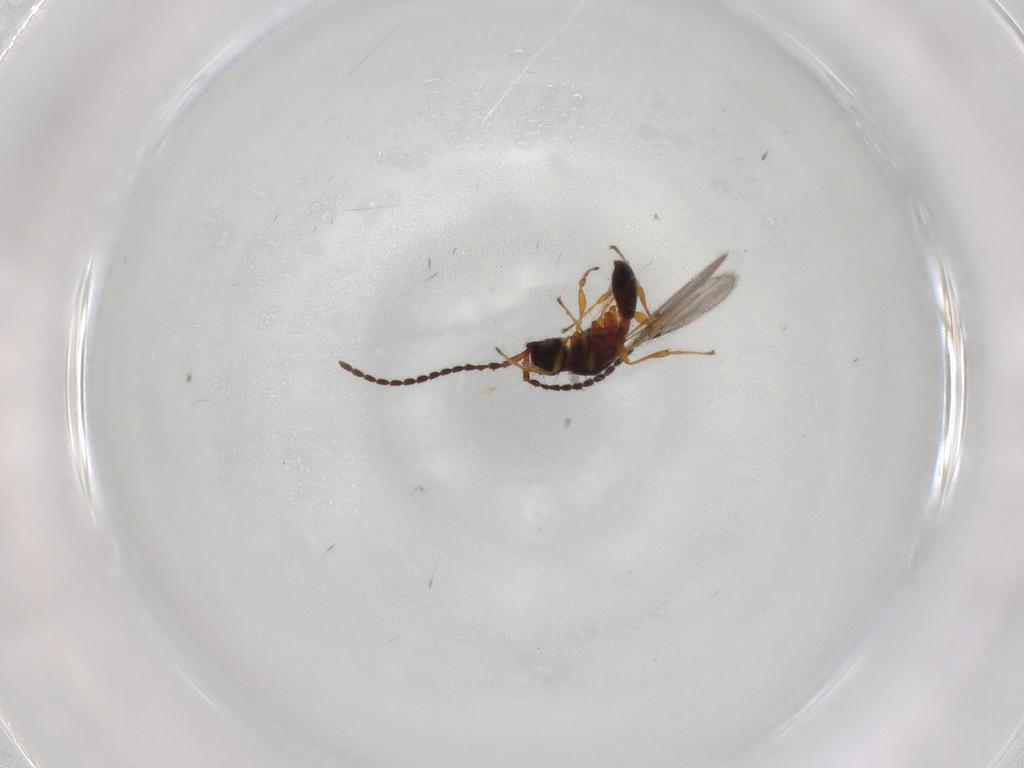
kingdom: Animalia
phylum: Arthropoda
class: Insecta
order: Hymenoptera
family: Diapriidae
